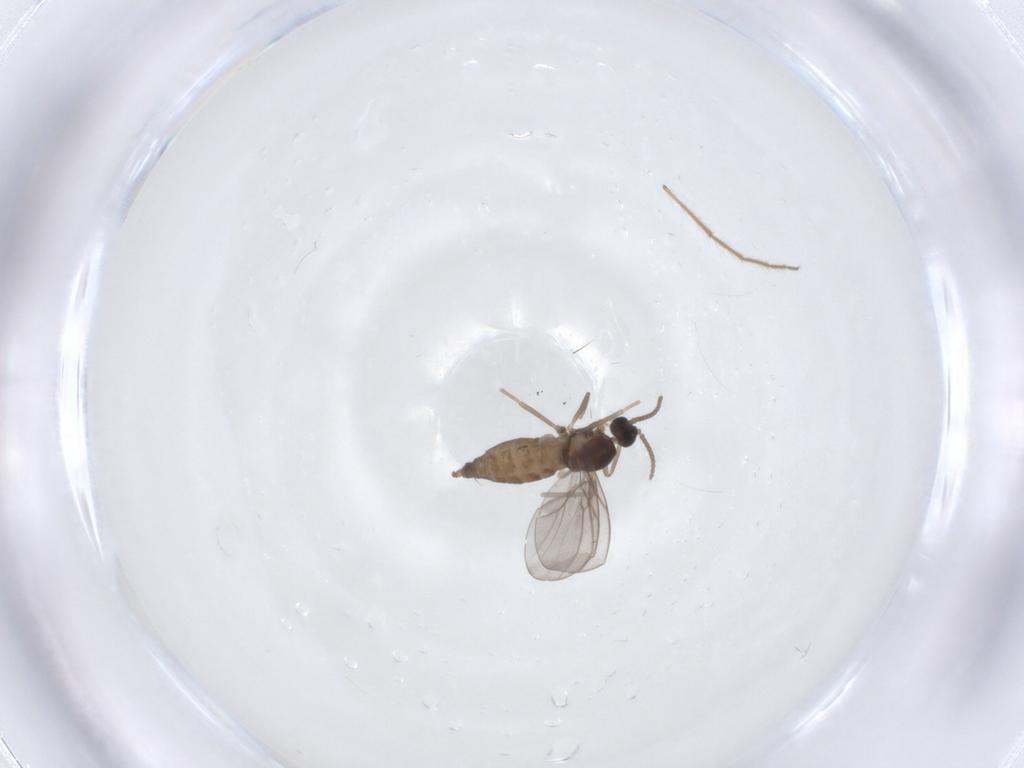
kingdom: Animalia
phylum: Arthropoda
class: Insecta
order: Diptera
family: Cecidomyiidae
